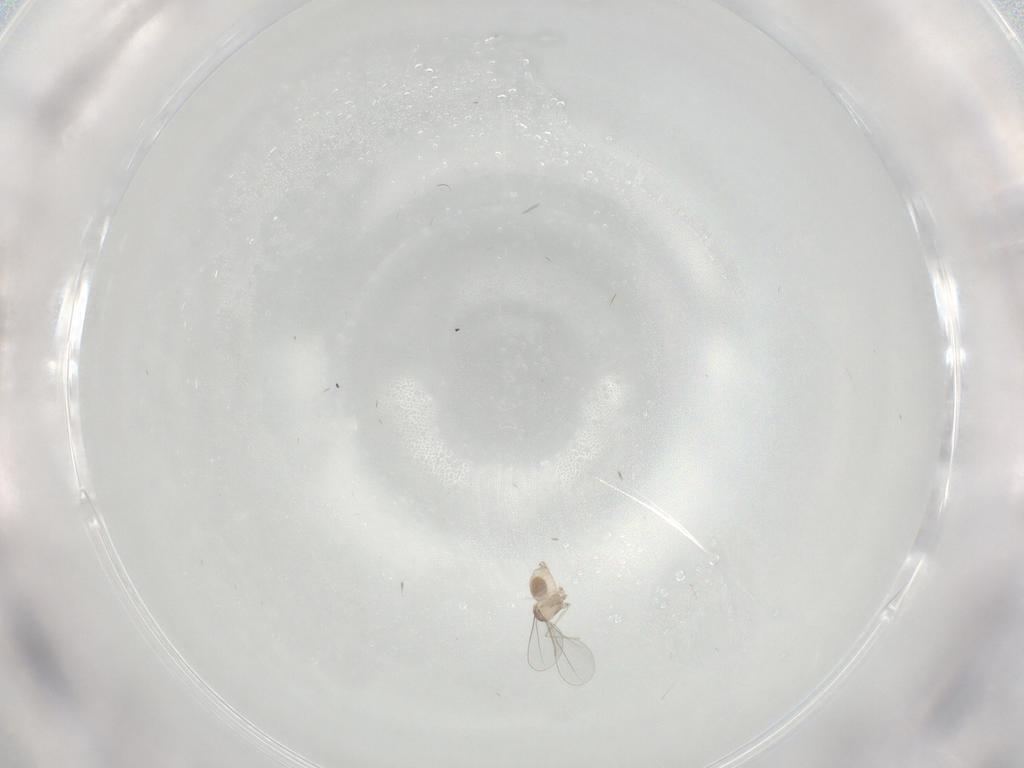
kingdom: Animalia
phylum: Arthropoda
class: Insecta
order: Diptera
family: Cecidomyiidae
